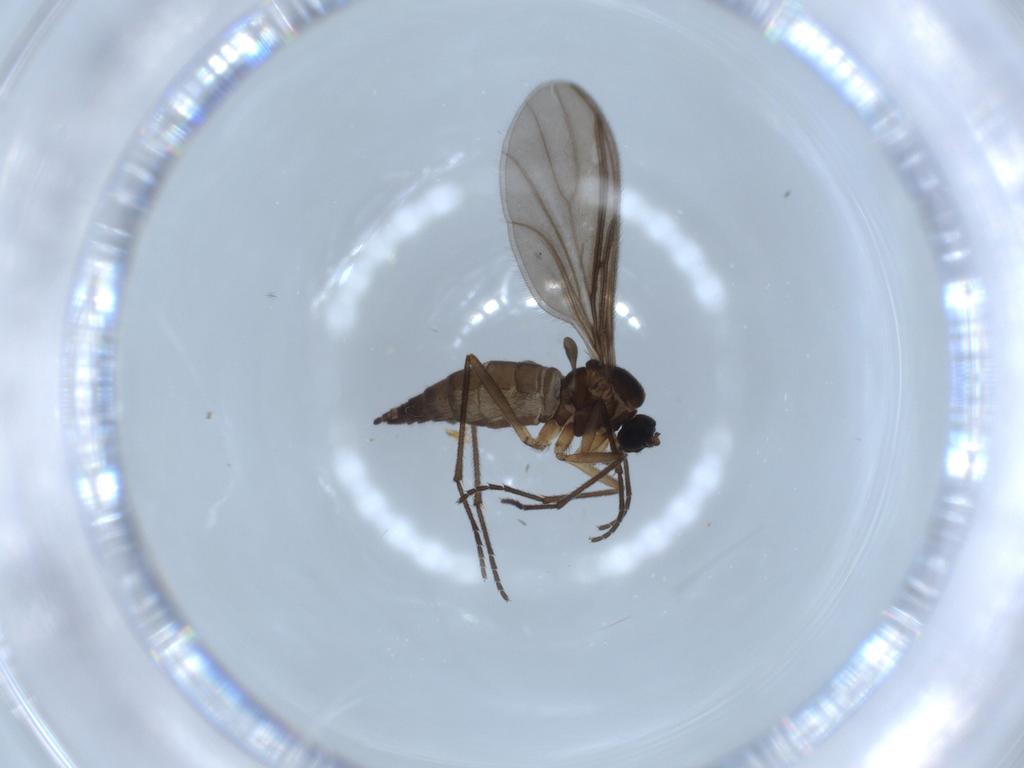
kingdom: Animalia
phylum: Arthropoda
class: Insecta
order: Diptera
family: Sciaridae
